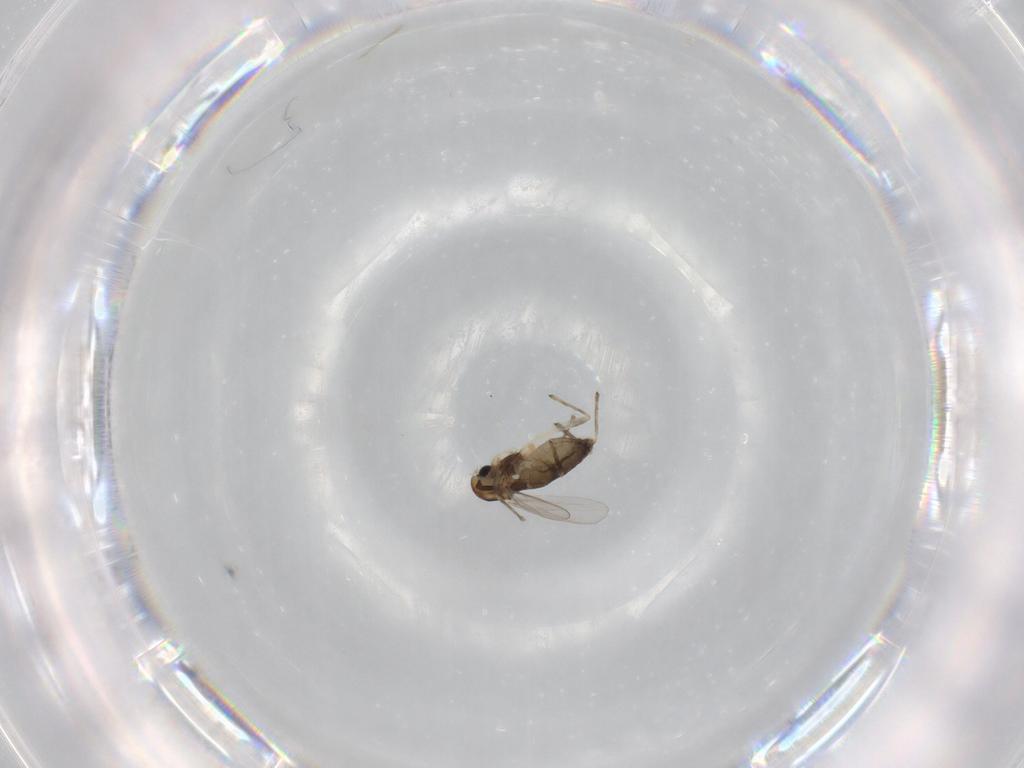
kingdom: Animalia
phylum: Arthropoda
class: Insecta
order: Diptera
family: Chironomidae
